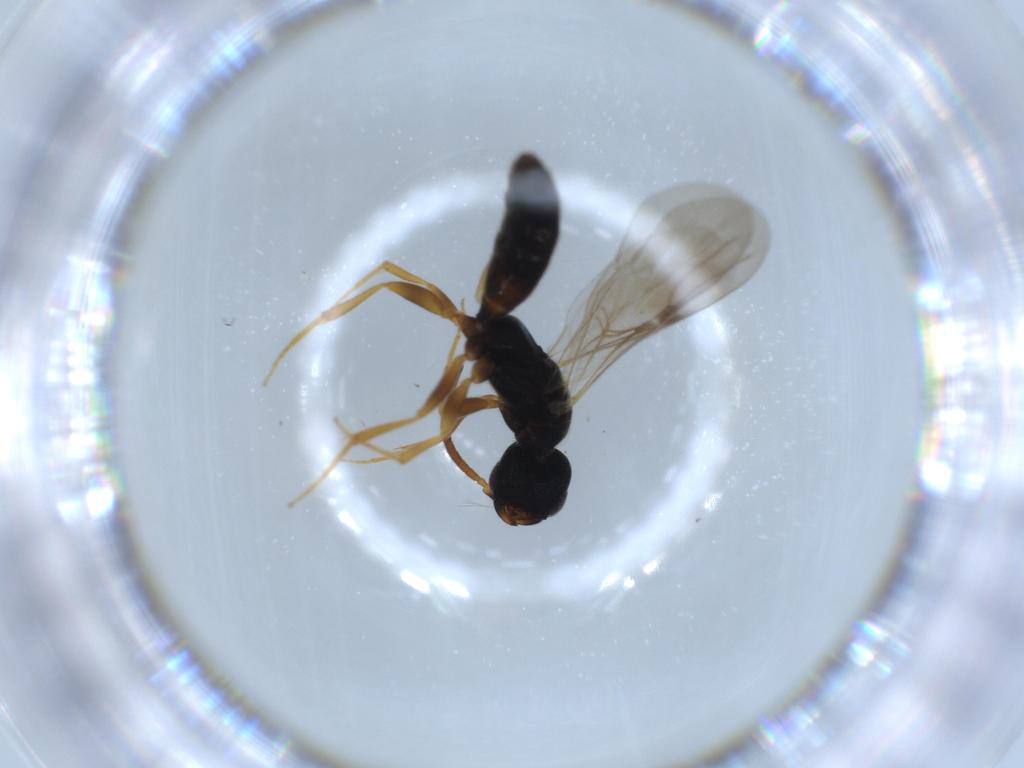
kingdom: Animalia
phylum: Arthropoda
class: Insecta
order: Hymenoptera
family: Bethylidae
